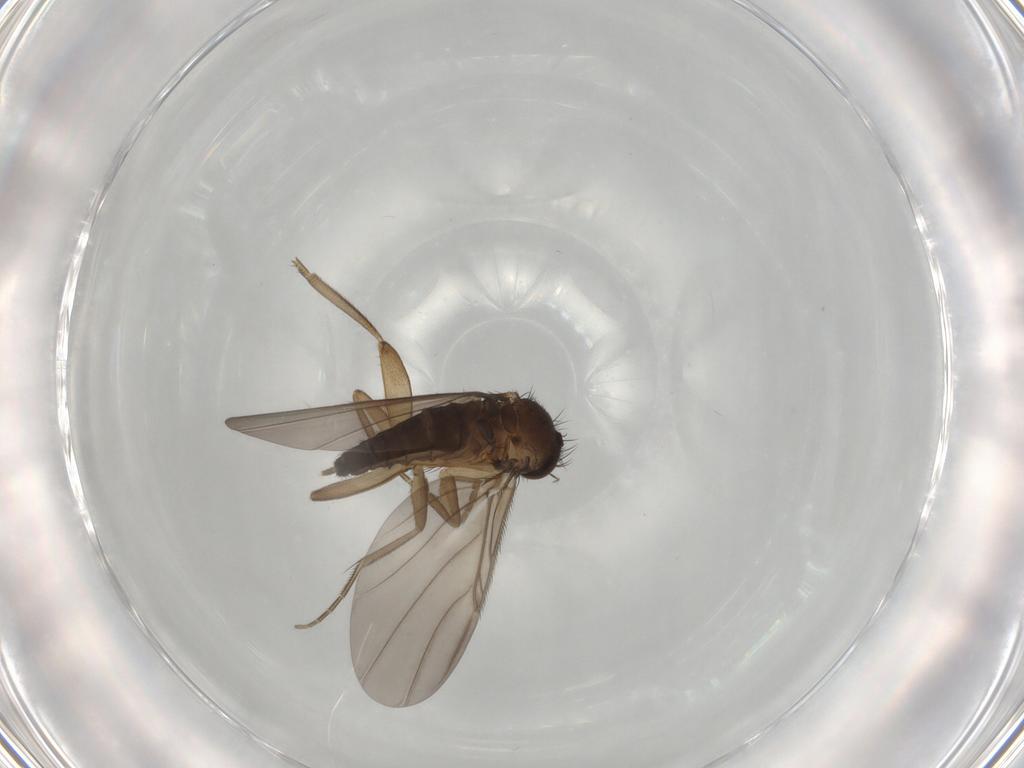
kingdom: Animalia
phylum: Arthropoda
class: Insecta
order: Diptera
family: Phoridae
